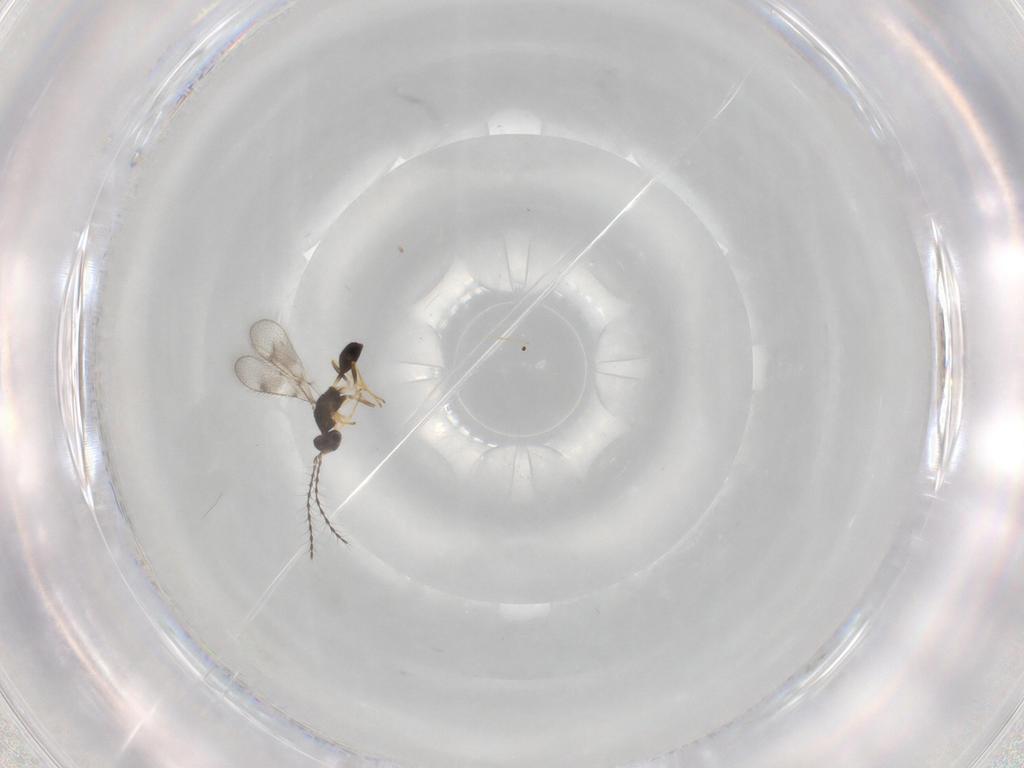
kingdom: Animalia
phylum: Arthropoda
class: Insecta
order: Hymenoptera
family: Diparidae
